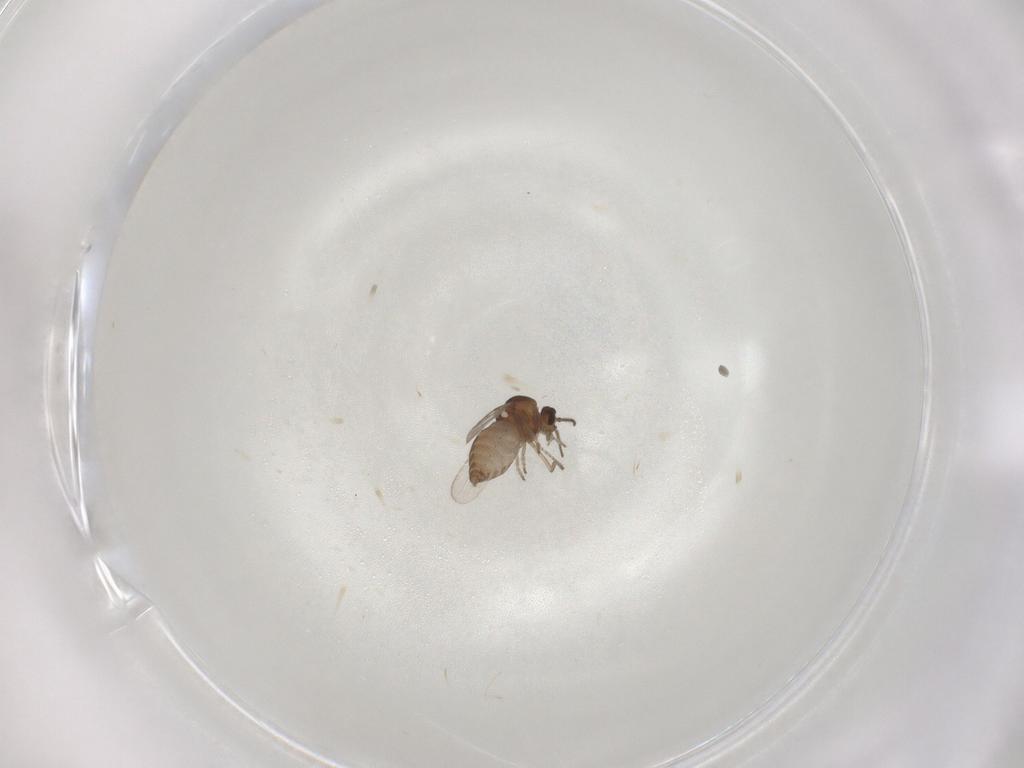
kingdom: Animalia
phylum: Arthropoda
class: Insecta
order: Diptera
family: Ceratopogonidae
